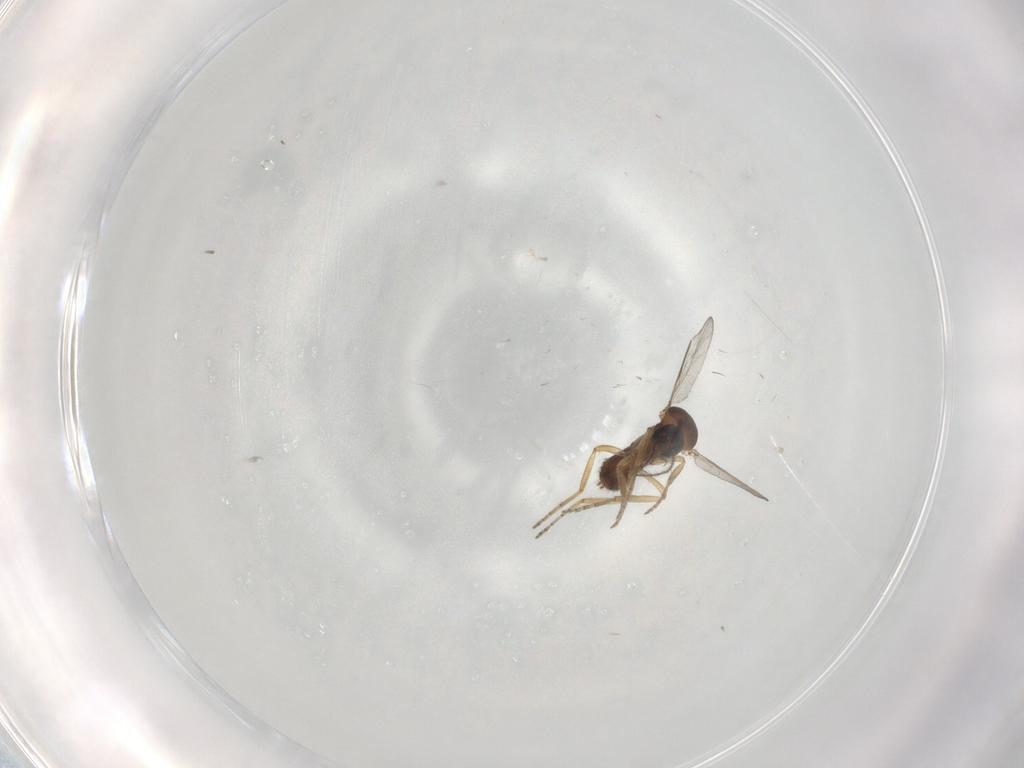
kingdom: Animalia
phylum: Arthropoda
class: Insecta
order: Diptera
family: Ceratopogonidae
